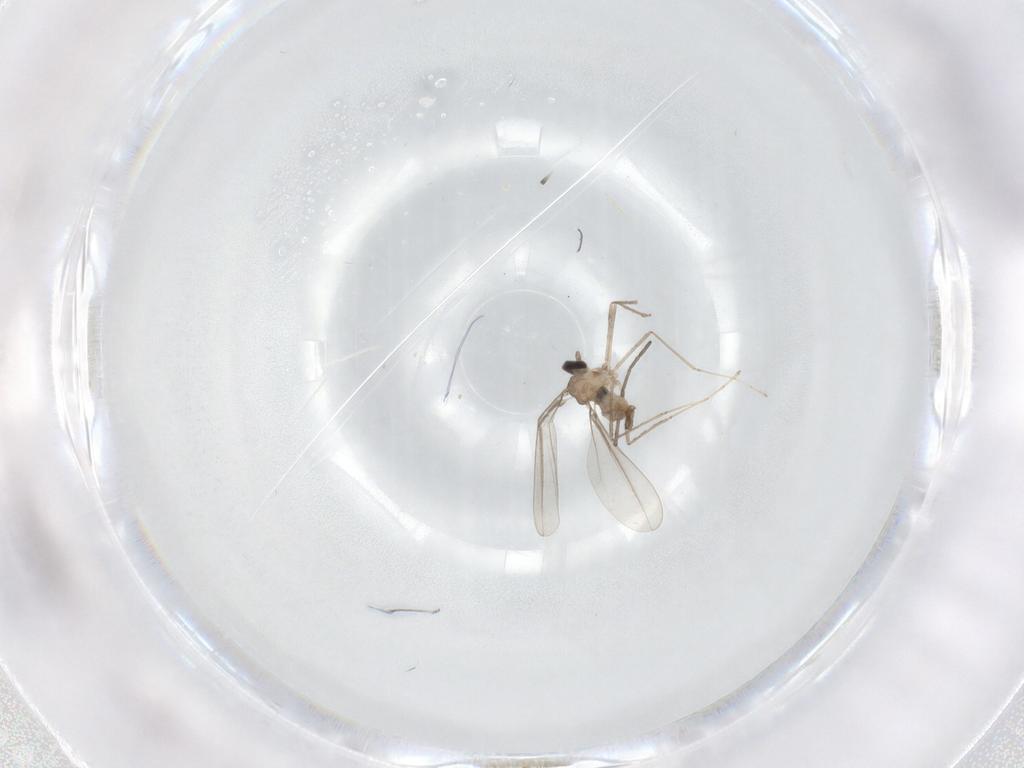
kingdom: Animalia
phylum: Arthropoda
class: Insecta
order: Diptera
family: Cecidomyiidae
